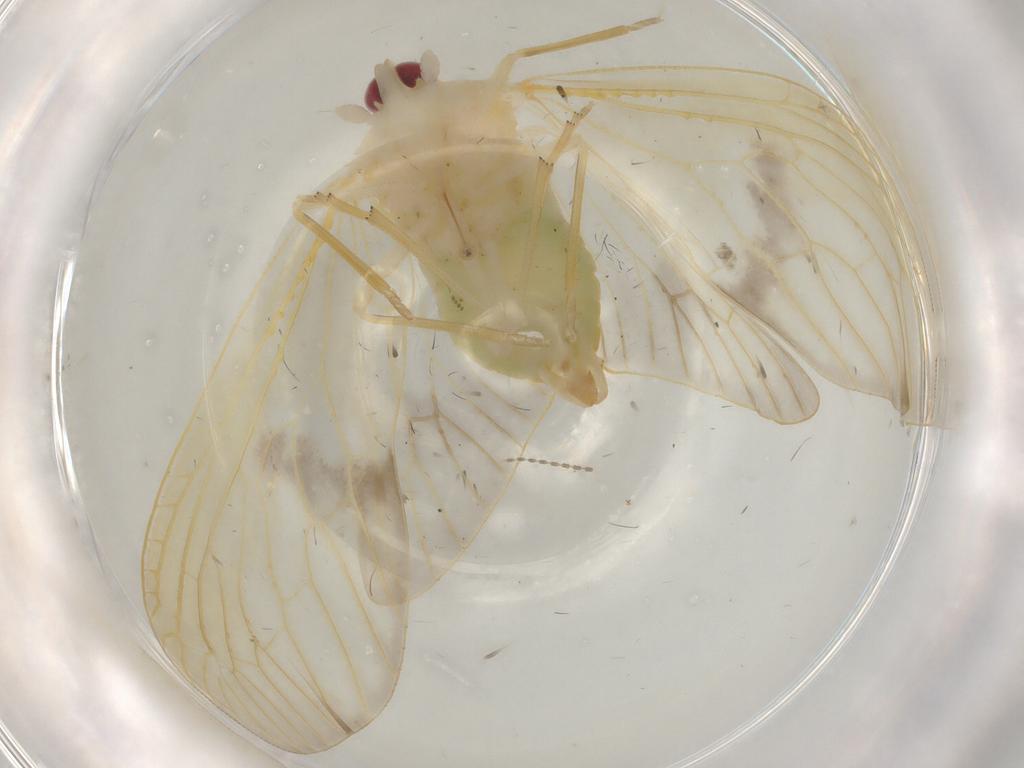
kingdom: Animalia
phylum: Arthropoda
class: Insecta
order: Hemiptera
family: Derbidae
